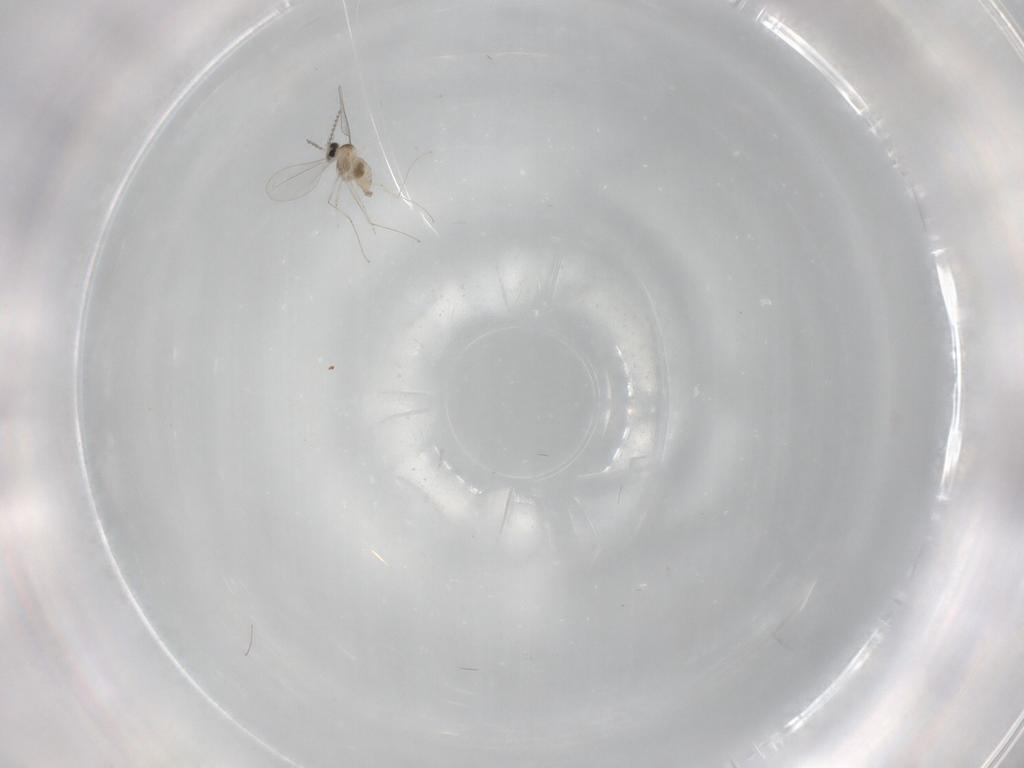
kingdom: Animalia
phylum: Arthropoda
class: Insecta
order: Diptera
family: Cecidomyiidae
